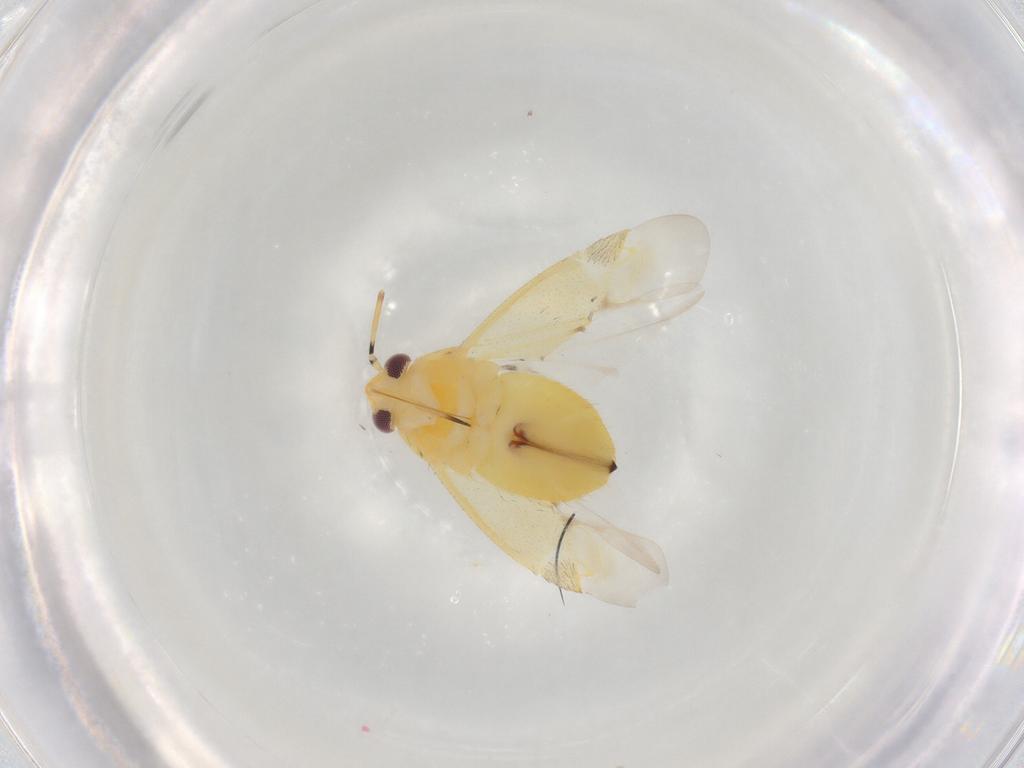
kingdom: Animalia
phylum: Arthropoda
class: Insecta
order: Hemiptera
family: Miridae
